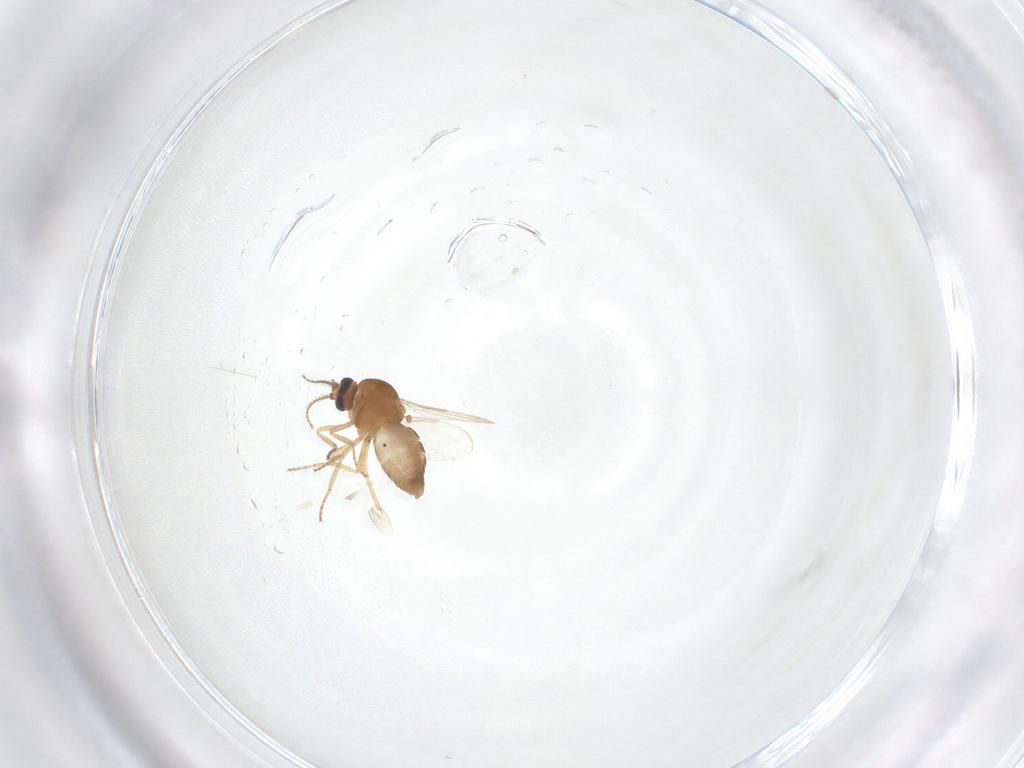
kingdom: Animalia
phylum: Arthropoda
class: Insecta
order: Diptera
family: Ceratopogonidae
